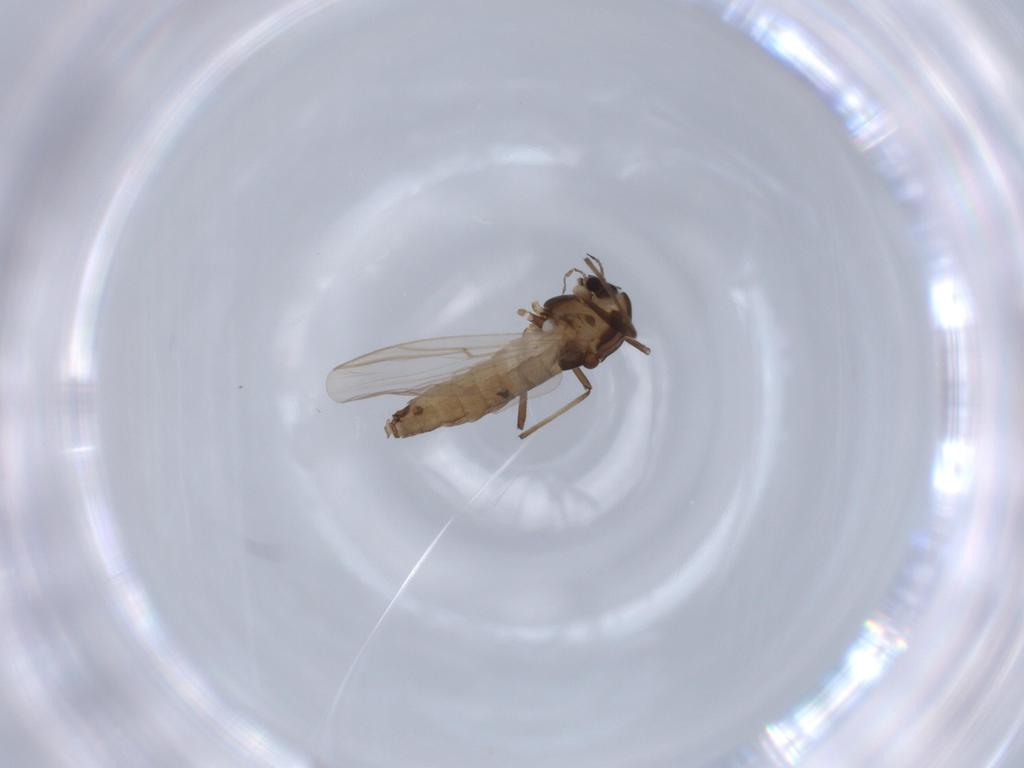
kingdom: Animalia
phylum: Arthropoda
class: Insecta
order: Diptera
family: Chironomidae
